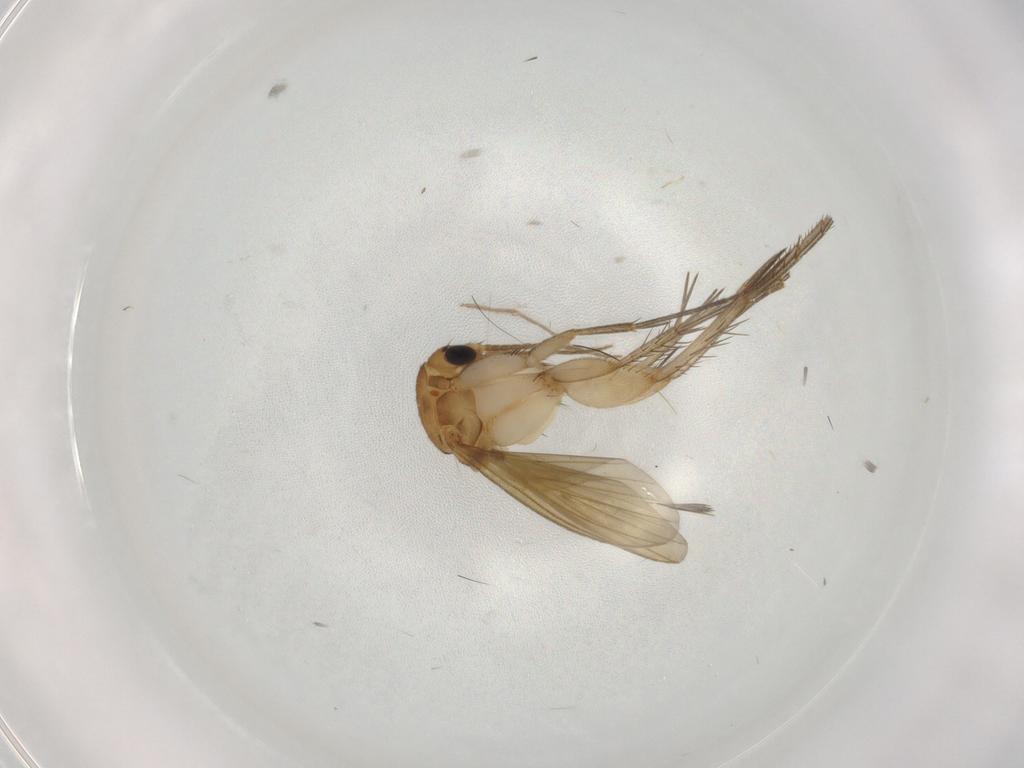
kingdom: Animalia
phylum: Arthropoda
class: Insecta
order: Diptera
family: Mycetophilidae
